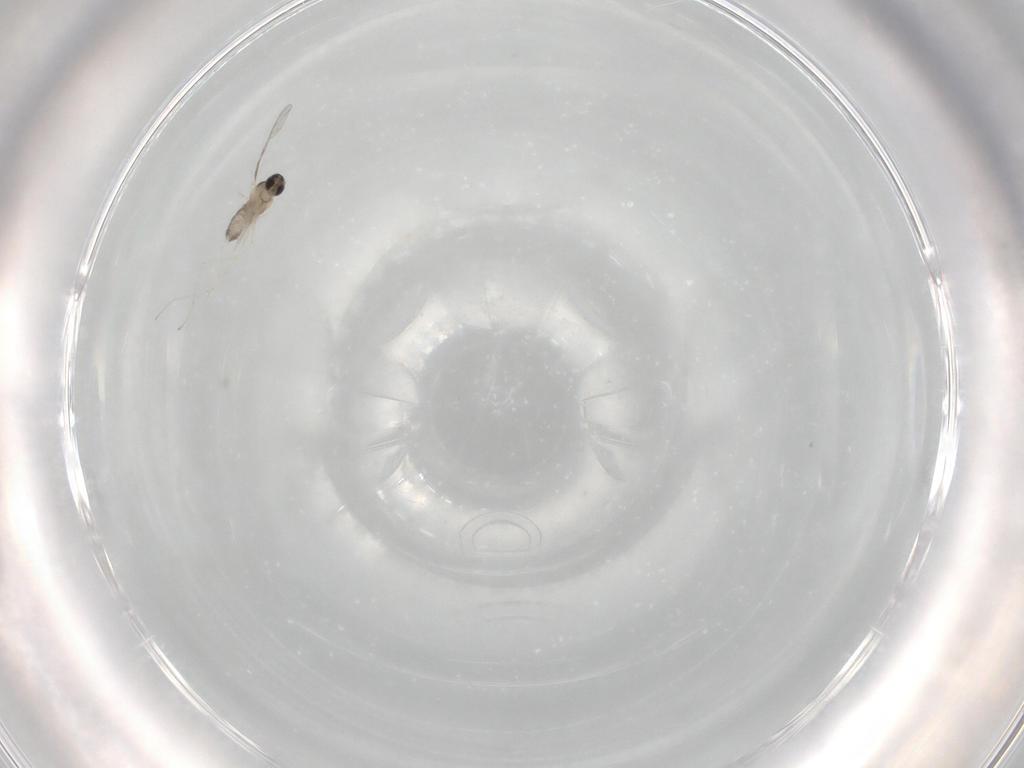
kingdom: Animalia
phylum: Arthropoda
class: Insecta
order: Diptera
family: Cecidomyiidae
